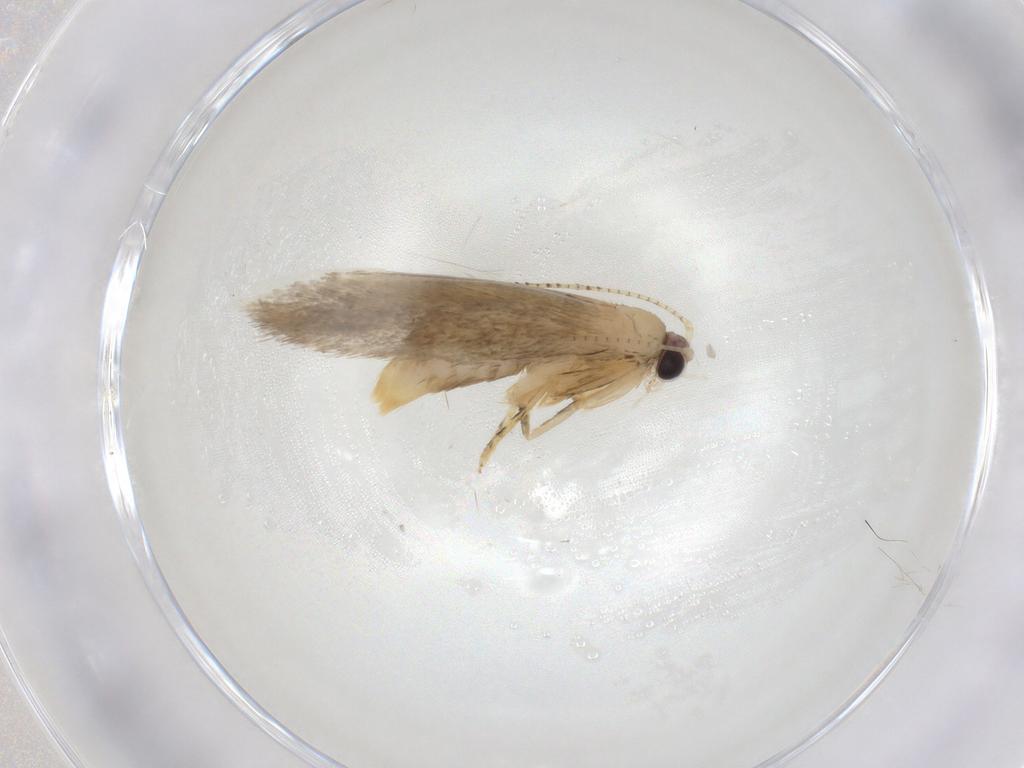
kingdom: Animalia
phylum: Arthropoda
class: Insecta
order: Lepidoptera
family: Tineidae
